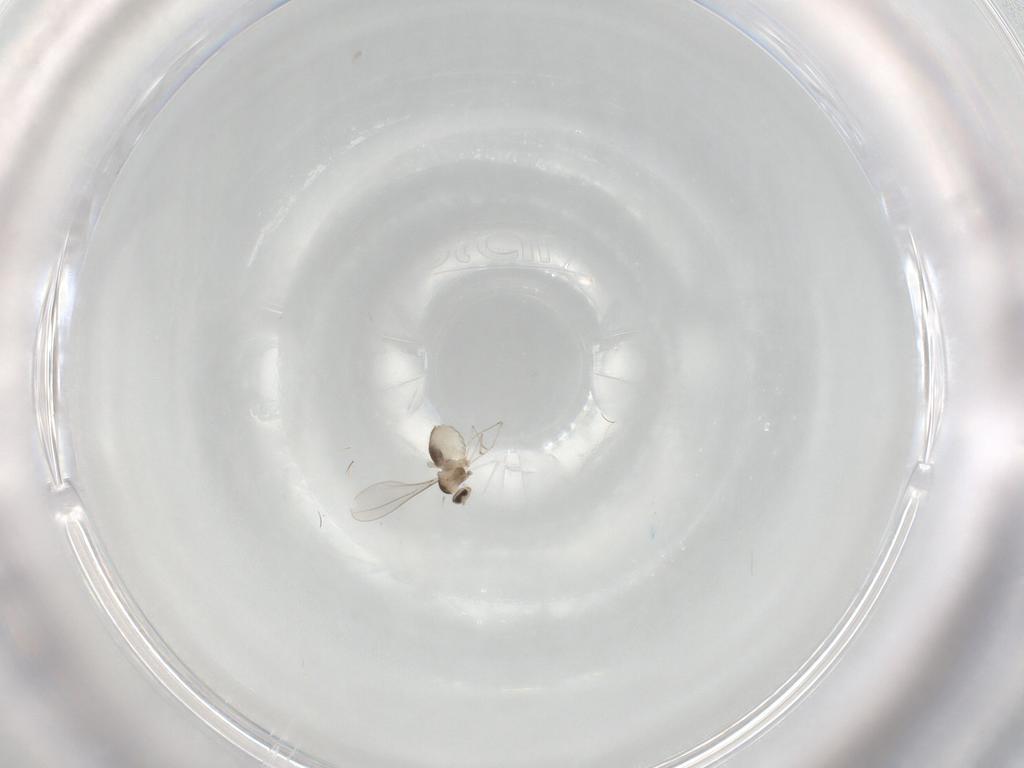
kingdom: Animalia
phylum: Arthropoda
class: Insecta
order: Diptera
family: Cecidomyiidae
